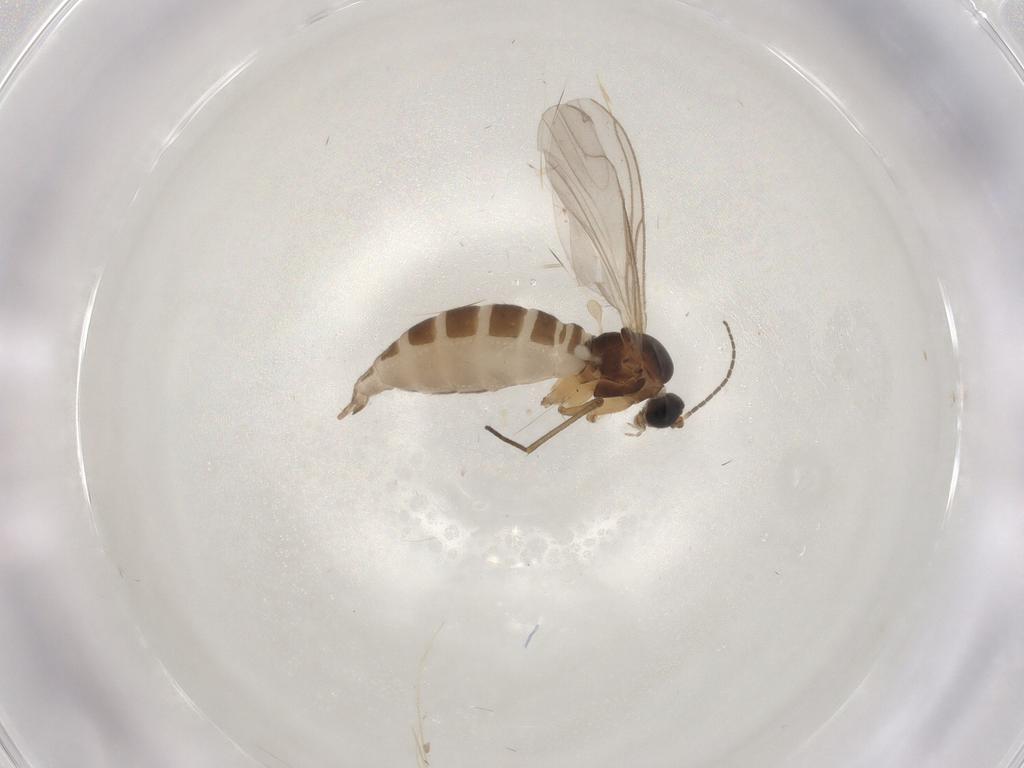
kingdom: Animalia
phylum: Arthropoda
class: Insecta
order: Diptera
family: Sciaridae
